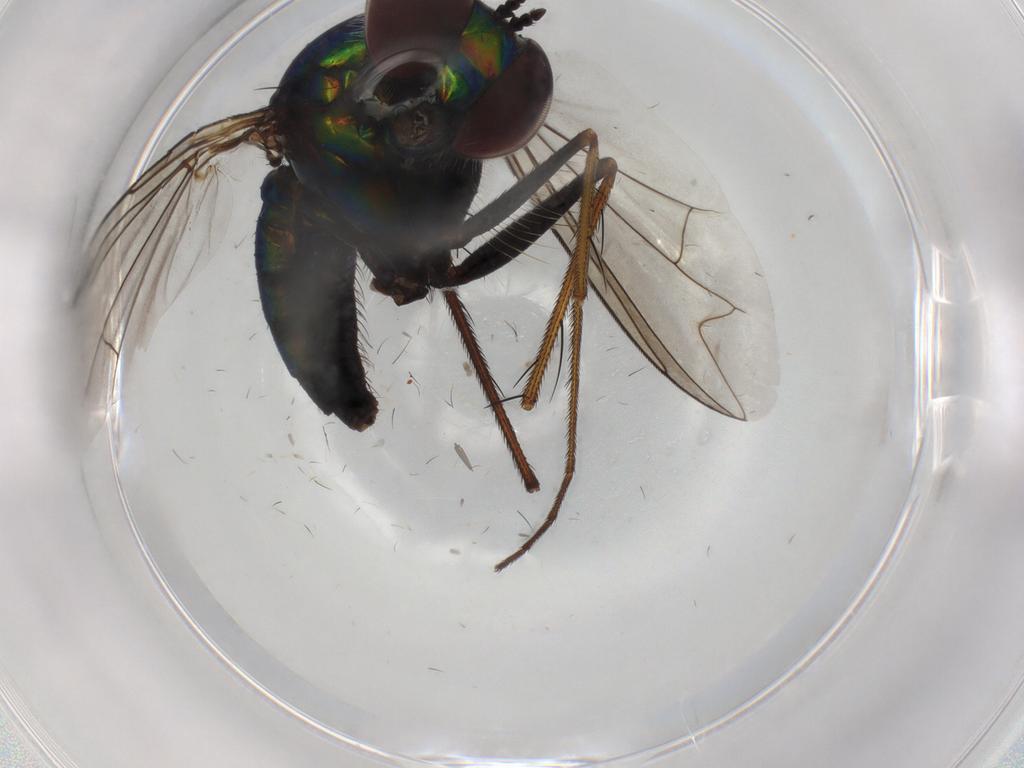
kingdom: Animalia
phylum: Arthropoda
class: Insecta
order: Diptera
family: Dolichopodidae
